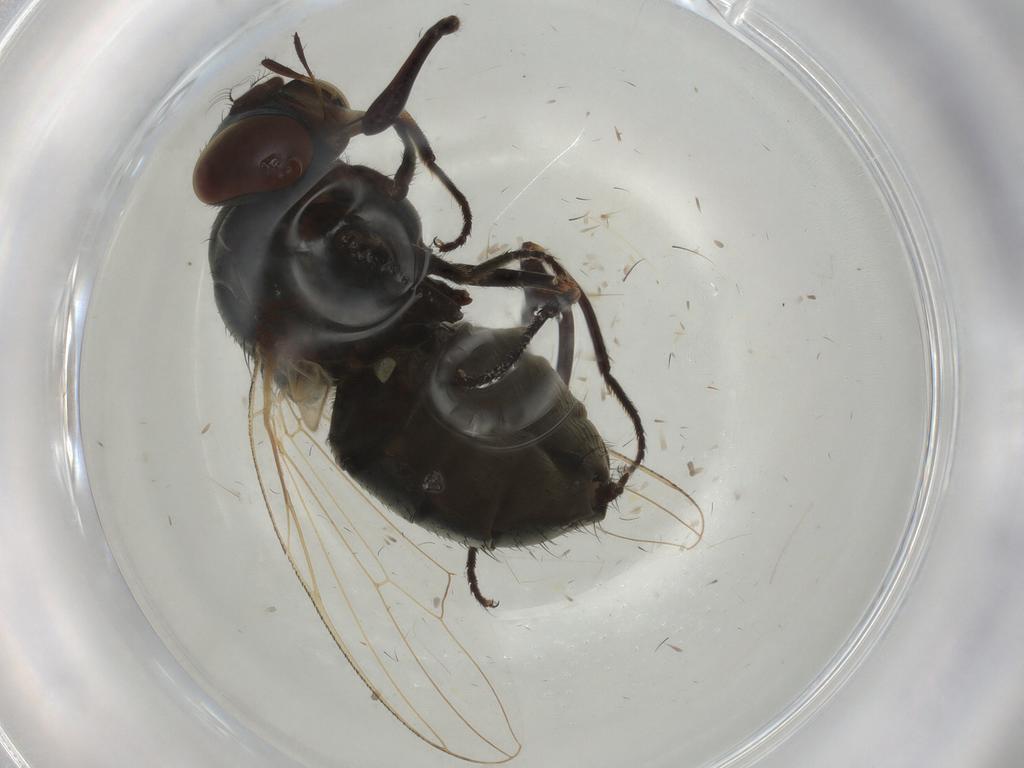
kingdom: Animalia
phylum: Arthropoda
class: Insecta
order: Diptera
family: Muscidae
